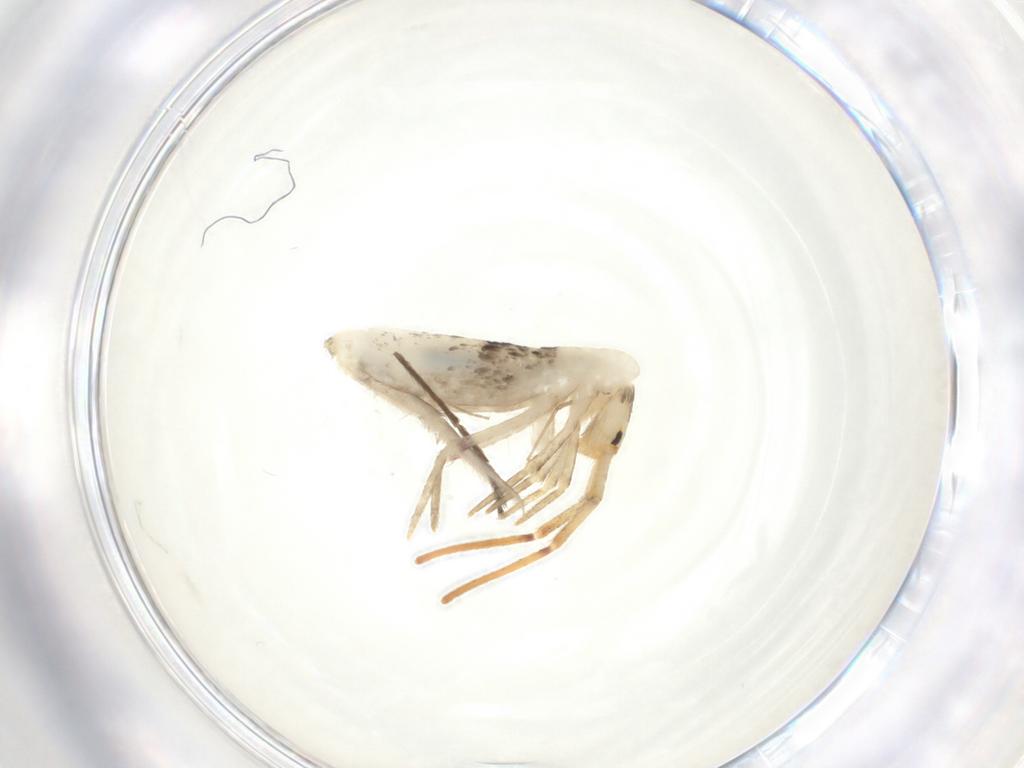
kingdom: Animalia
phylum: Arthropoda
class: Collembola
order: Poduromorpha
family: Hypogastruridae
